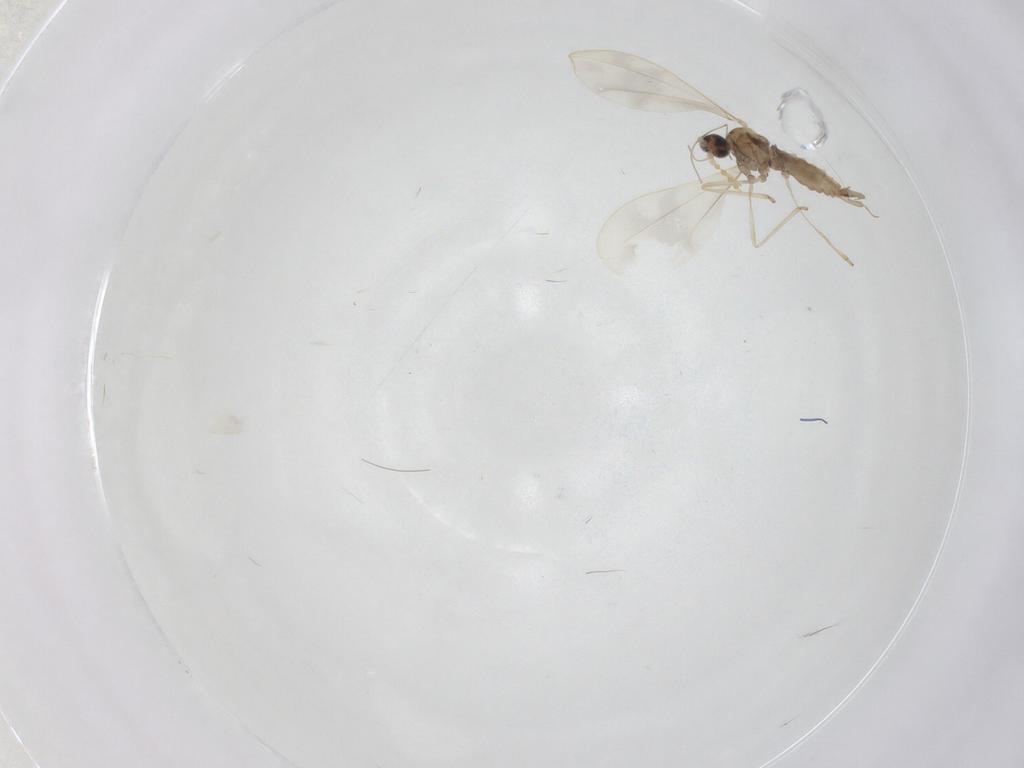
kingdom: Animalia
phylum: Arthropoda
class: Insecta
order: Diptera
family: Cecidomyiidae
